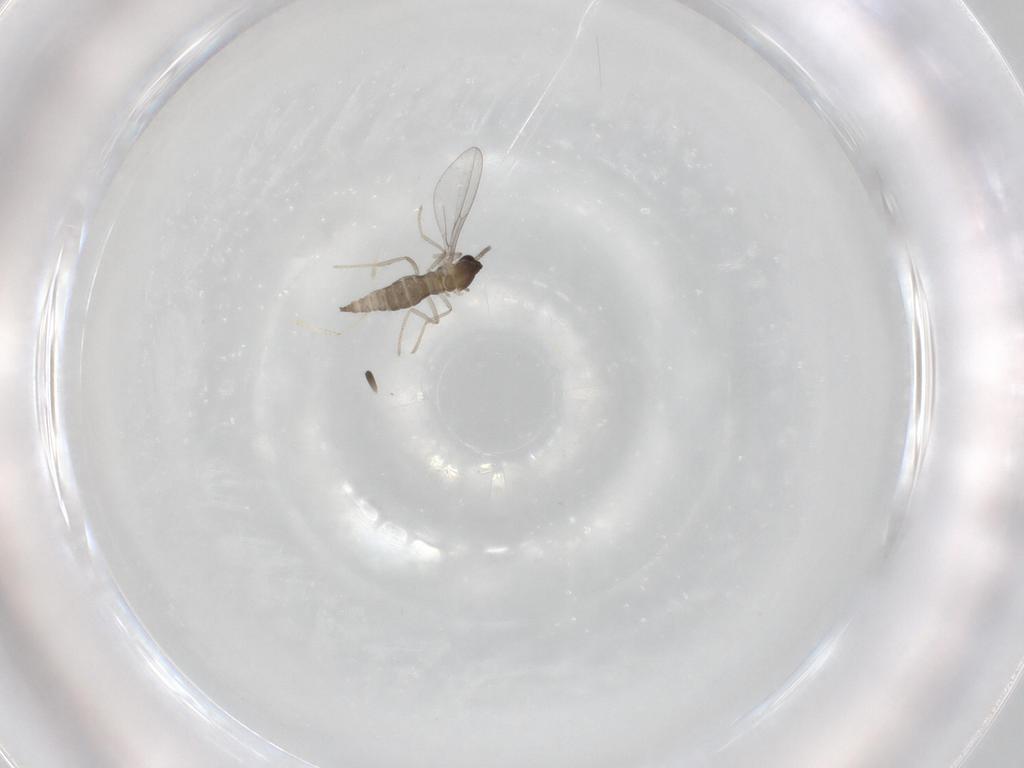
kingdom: Animalia
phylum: Arthropoda
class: Insecta
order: Diptera
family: Cecidomyiidae
